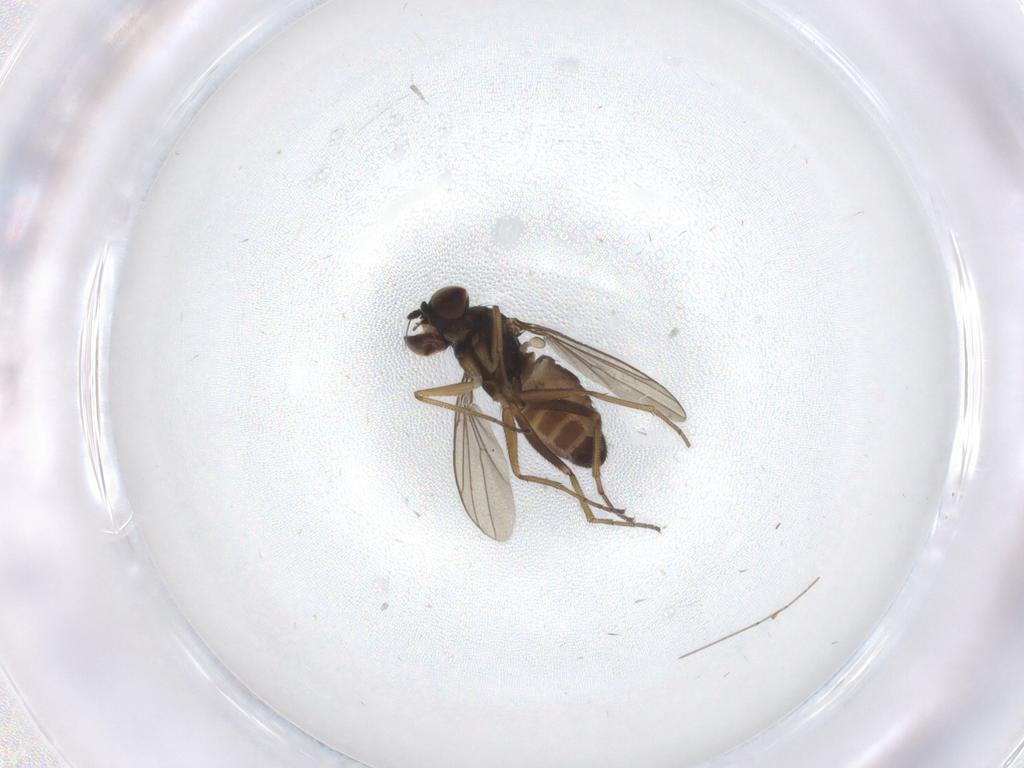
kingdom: Animalia
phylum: Arthropoda
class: Insecta
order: Diptera
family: Dolichopodidae
